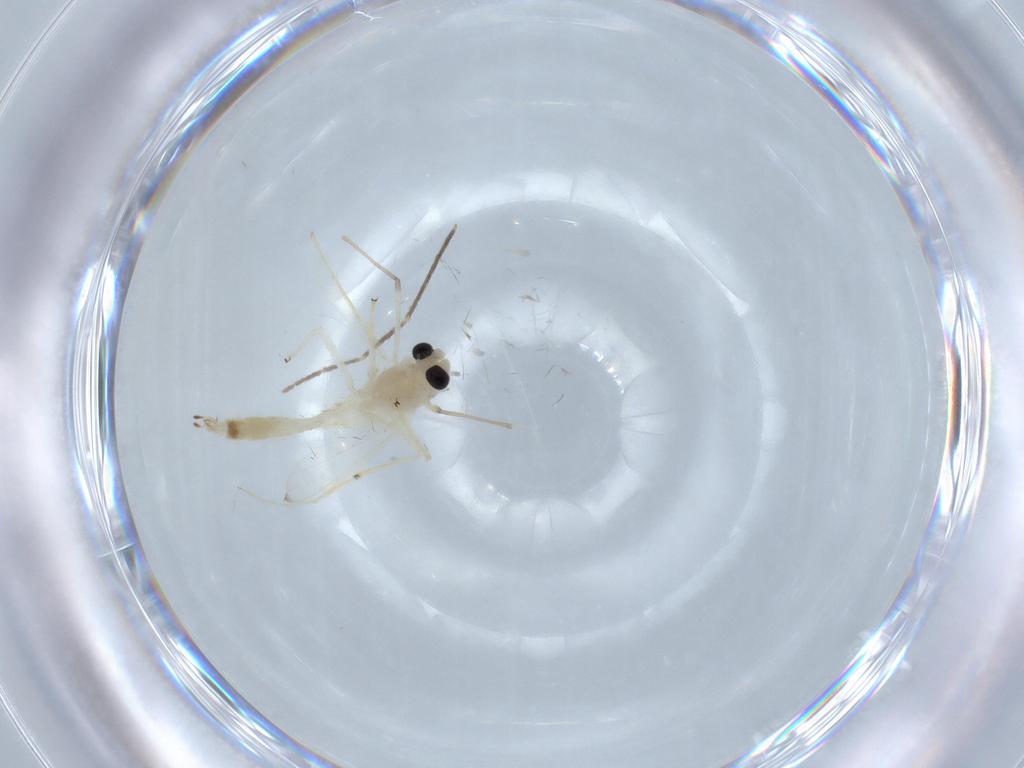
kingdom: Animalia
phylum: Arthropoda
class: Insecta
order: Diptera
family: Chironomidae
